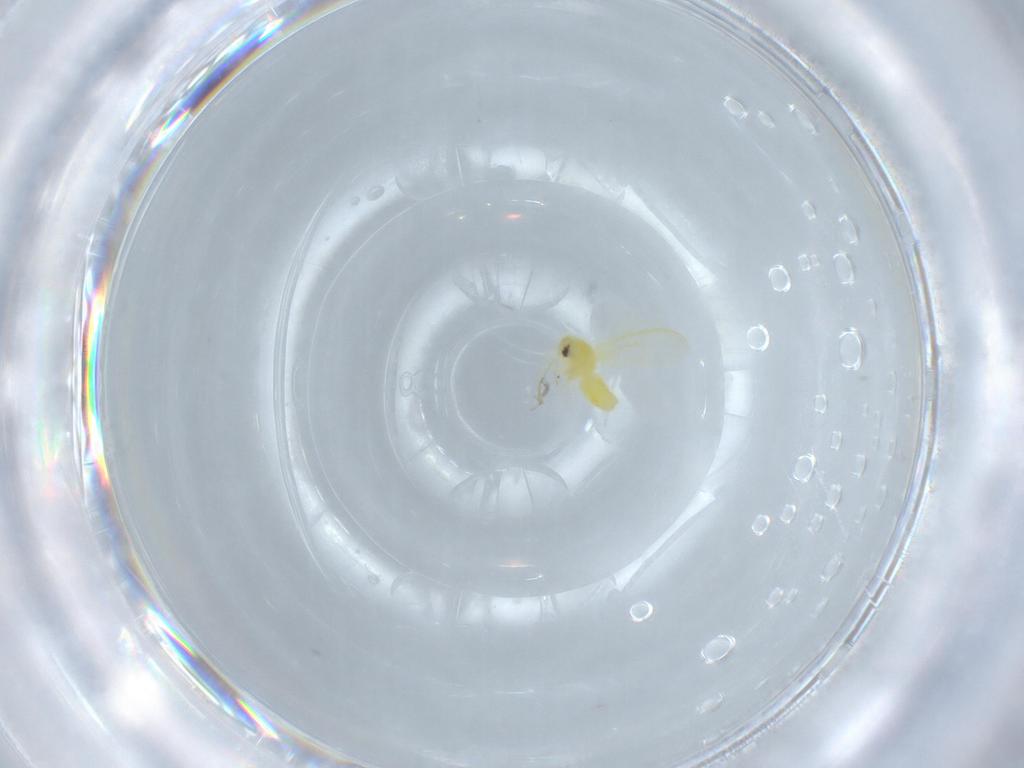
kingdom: Animalia
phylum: Arthropoda
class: Insecta
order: Hemiptera
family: Aleyrodidae
